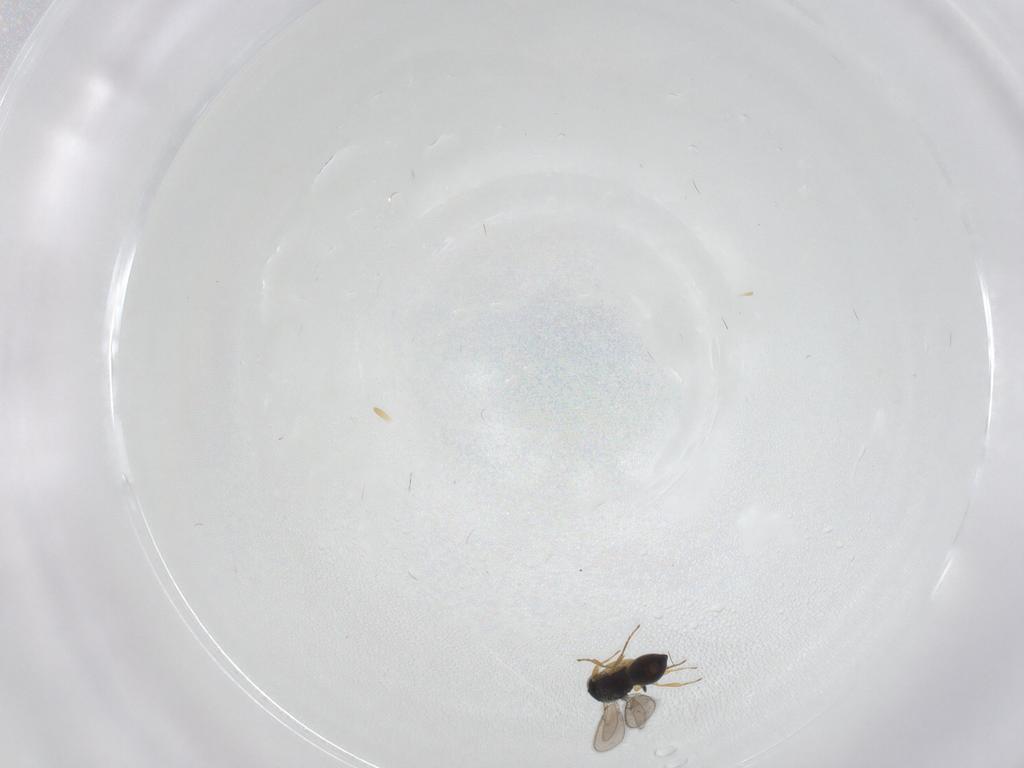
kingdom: Animalia
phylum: Arthropoda
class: Insecta
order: Hymenoptera
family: Scelionidae
